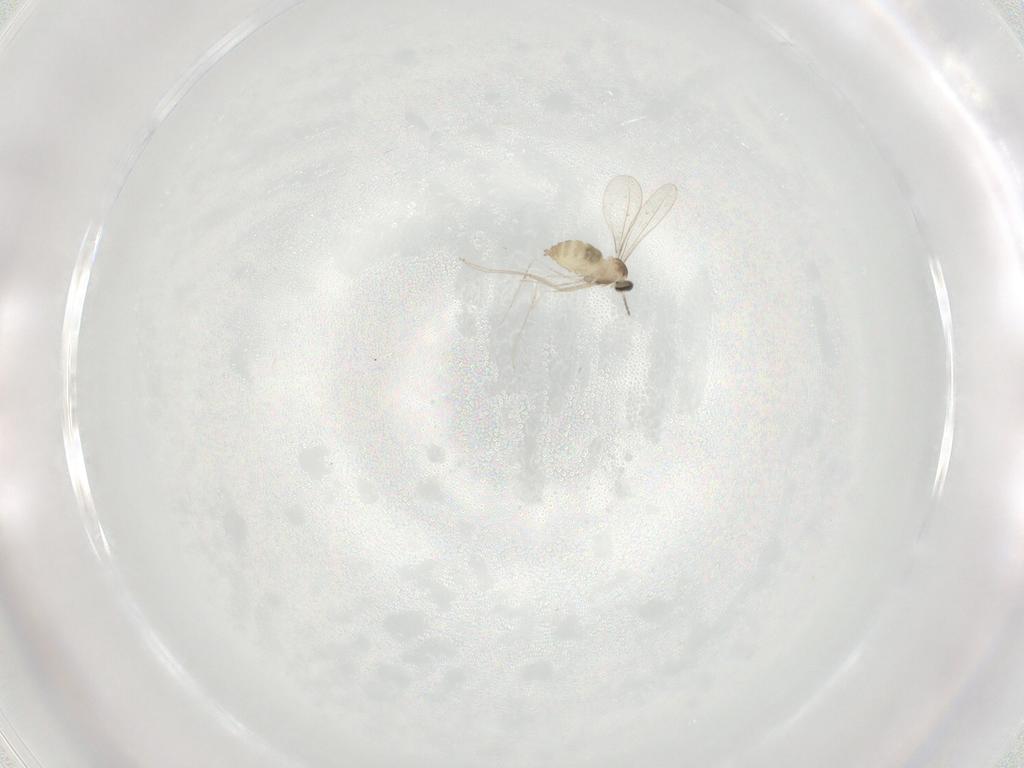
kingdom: Animalia
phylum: Arthropoda
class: Insecta
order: Diptera
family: Cecidomyiidae
